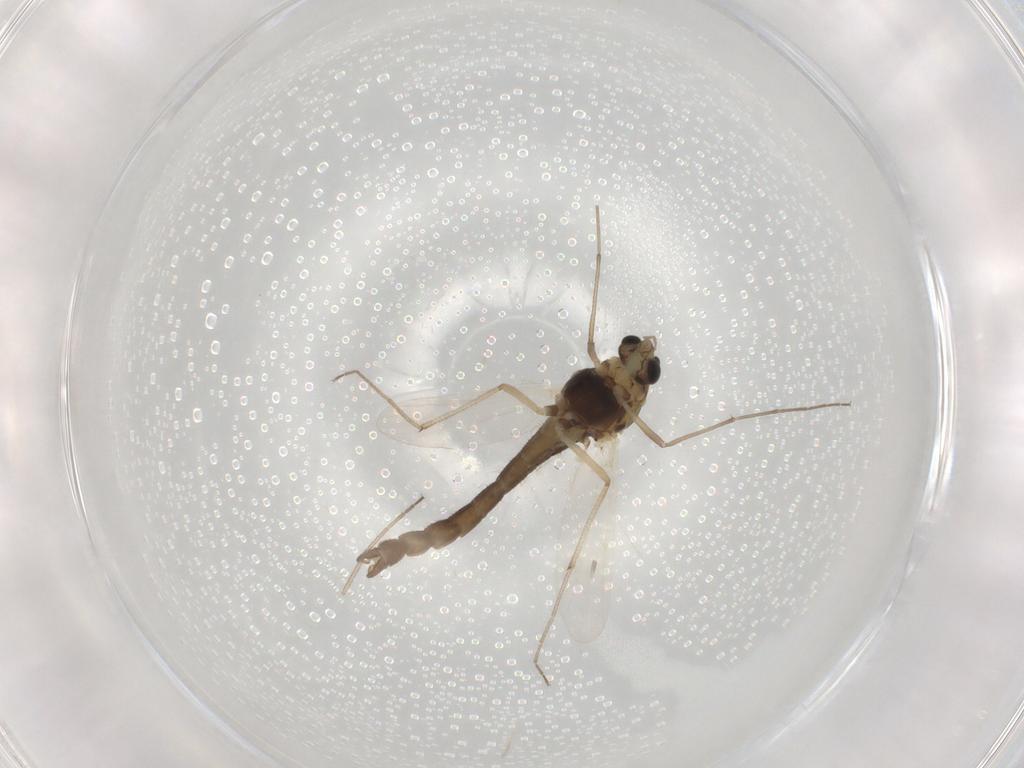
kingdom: Animalia
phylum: Arthropoda
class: Insecta
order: Diptera
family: Chironomidae
